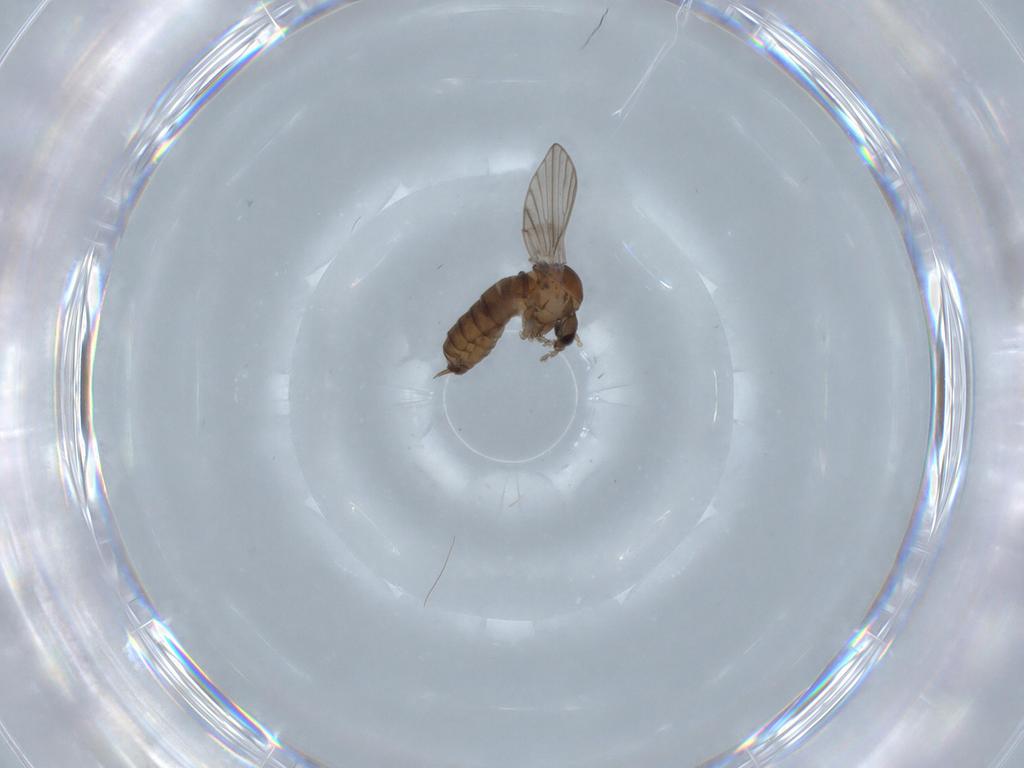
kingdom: Animalia
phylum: Arthropoda
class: Insecta
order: Diptera
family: Psychodidae
